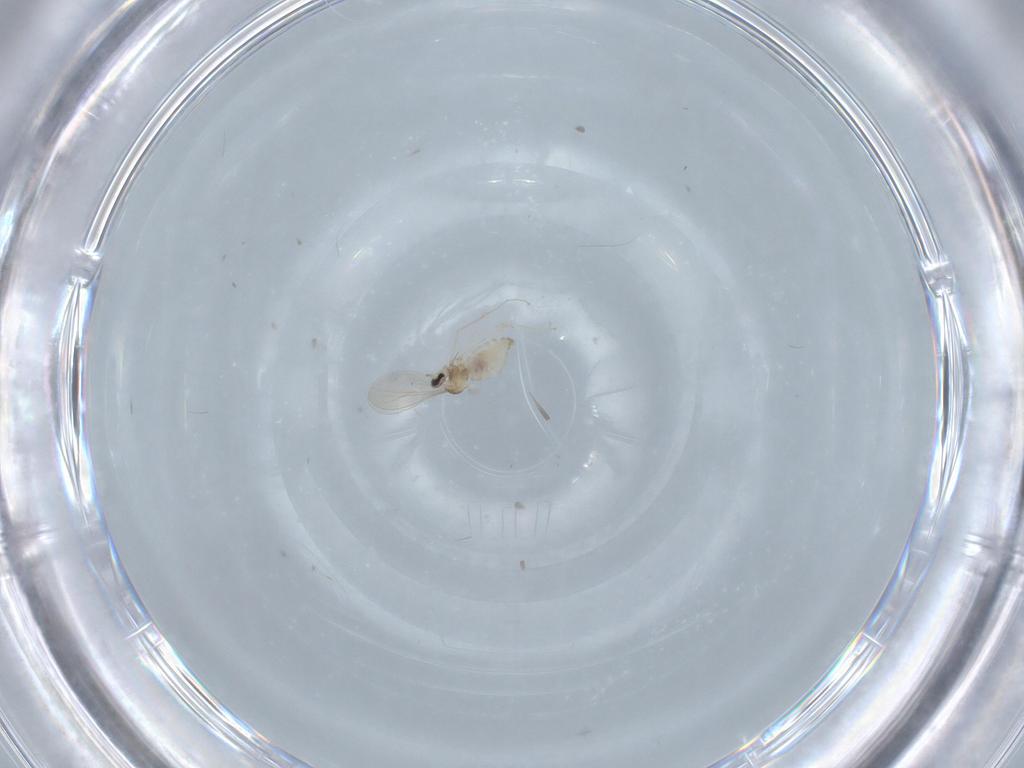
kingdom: Animalia
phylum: Arthropoda
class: Insecta
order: Diptera
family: Cecidomyiidae
